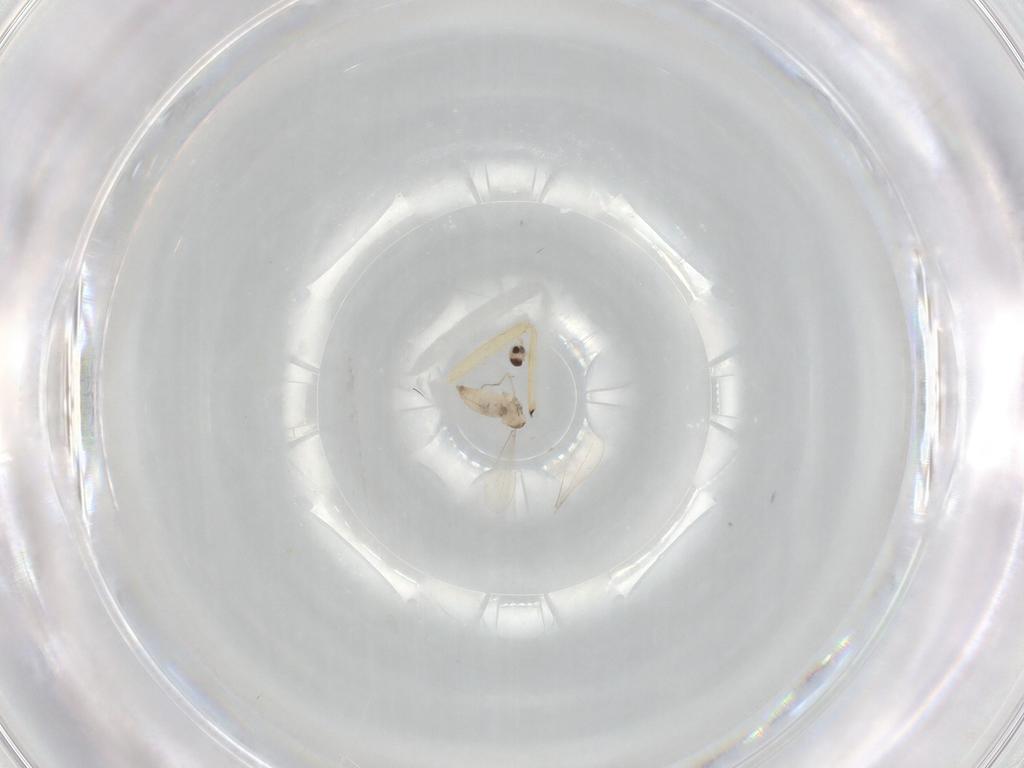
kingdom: Animalia
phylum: Arthropoda
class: Insecta
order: Diptera
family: Cecidomyiidae
